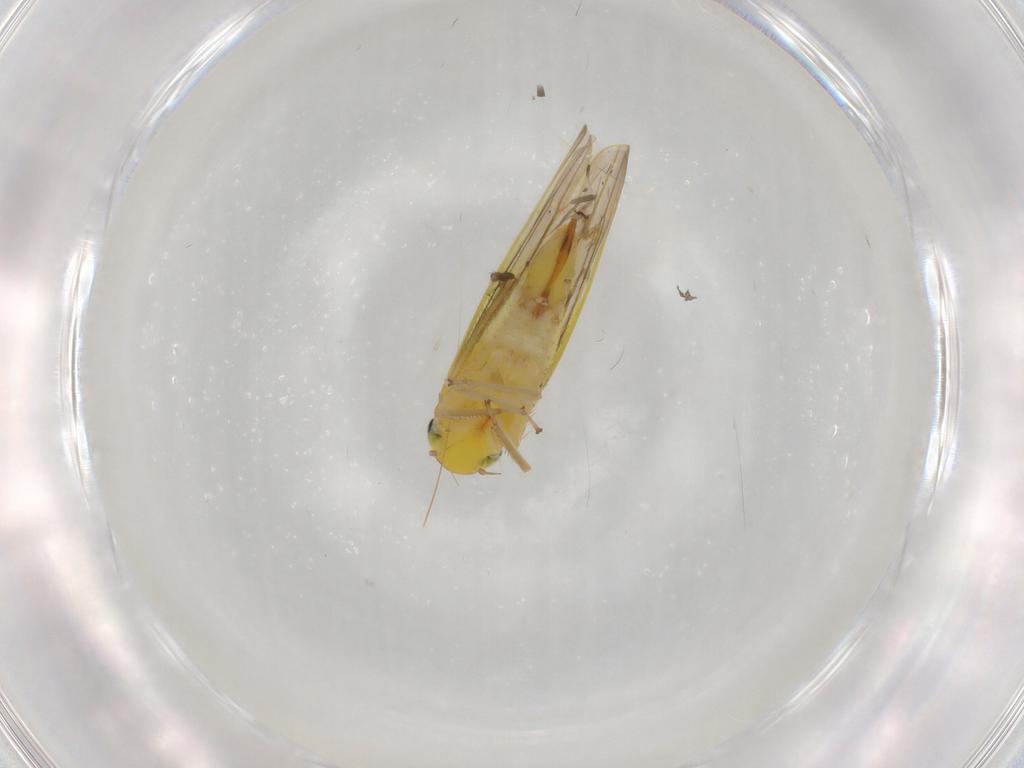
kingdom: Animalia
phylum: Arthropoda
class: Insecta
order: Hemiptera
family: Cicadellidae
